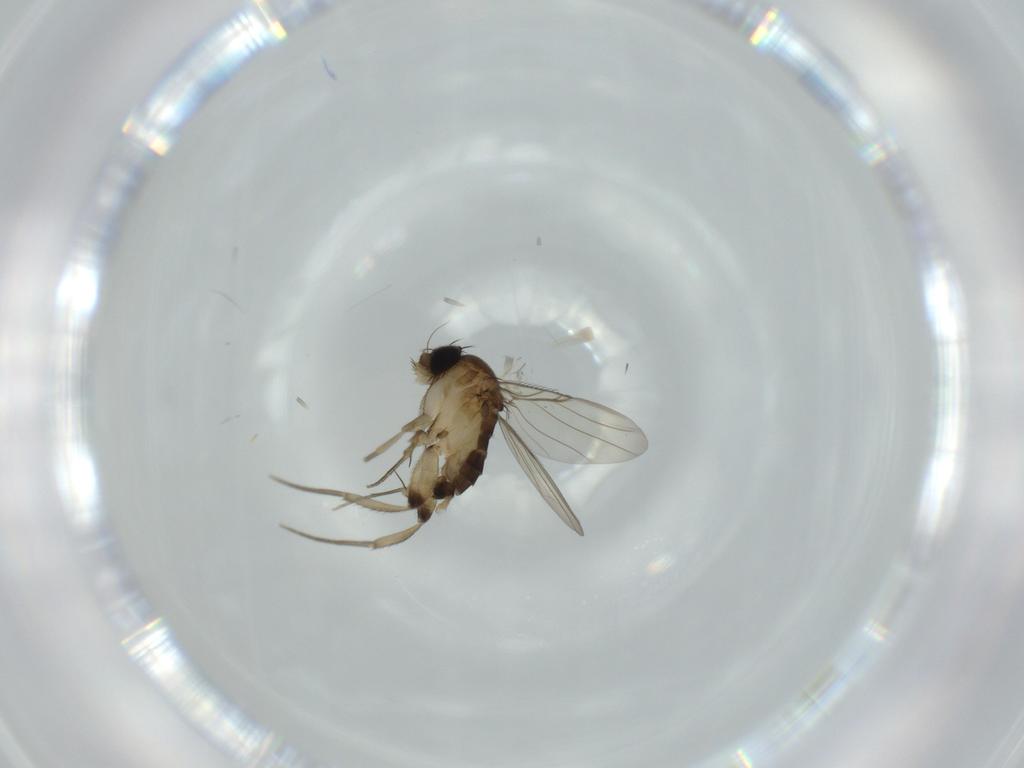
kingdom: Animalia
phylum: Arthropoda
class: Insecta
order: Diptera
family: Phoridae
